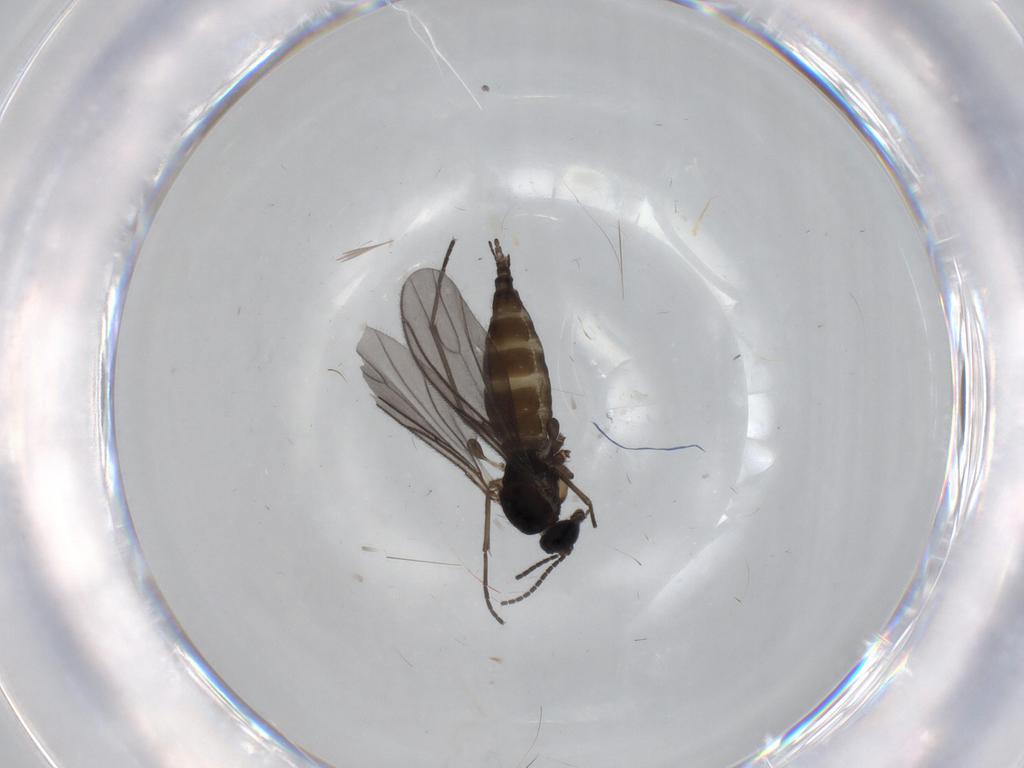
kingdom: Animalia
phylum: Arthropoda
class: Insecta
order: Diptera
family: Sciaridae
